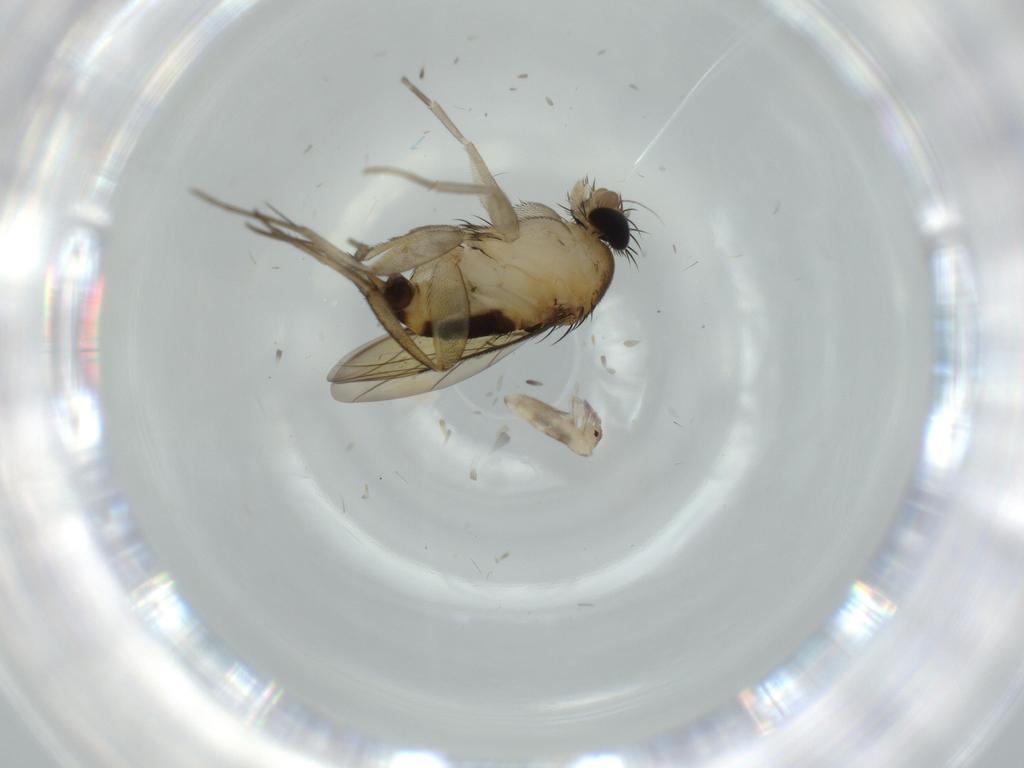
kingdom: Animalia
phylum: Arthropoda
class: Insecta
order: Diptera
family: Phoridae
